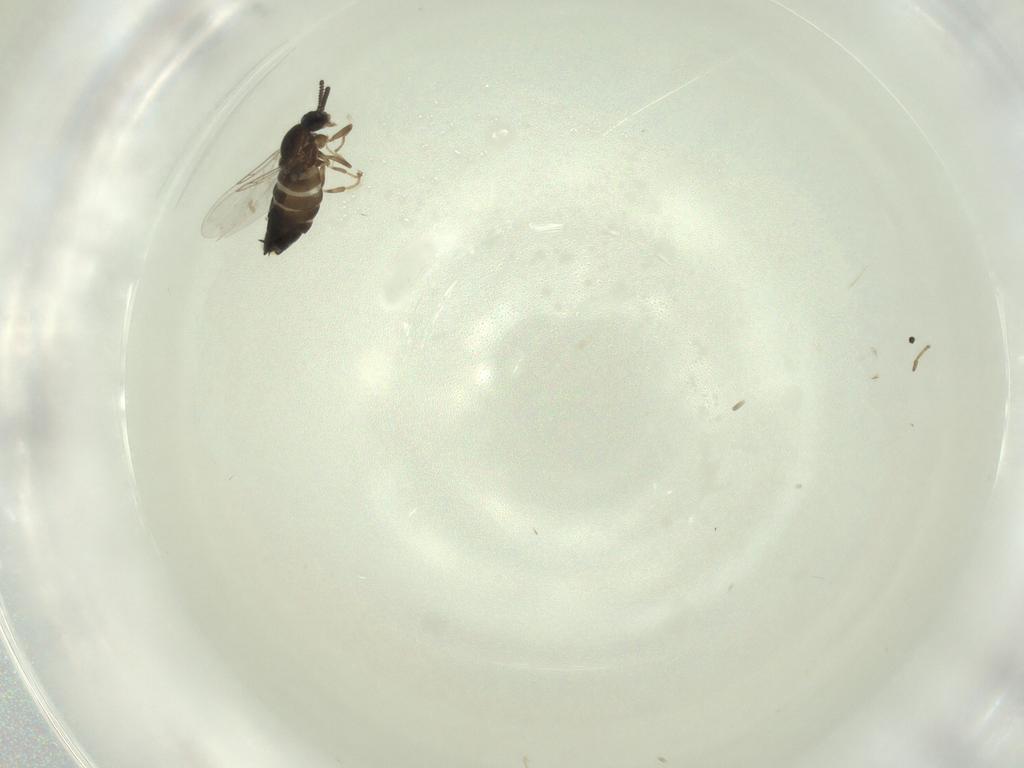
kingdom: Animalia
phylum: Arthropoda
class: Insecta
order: Diptera
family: Scatopsidae
